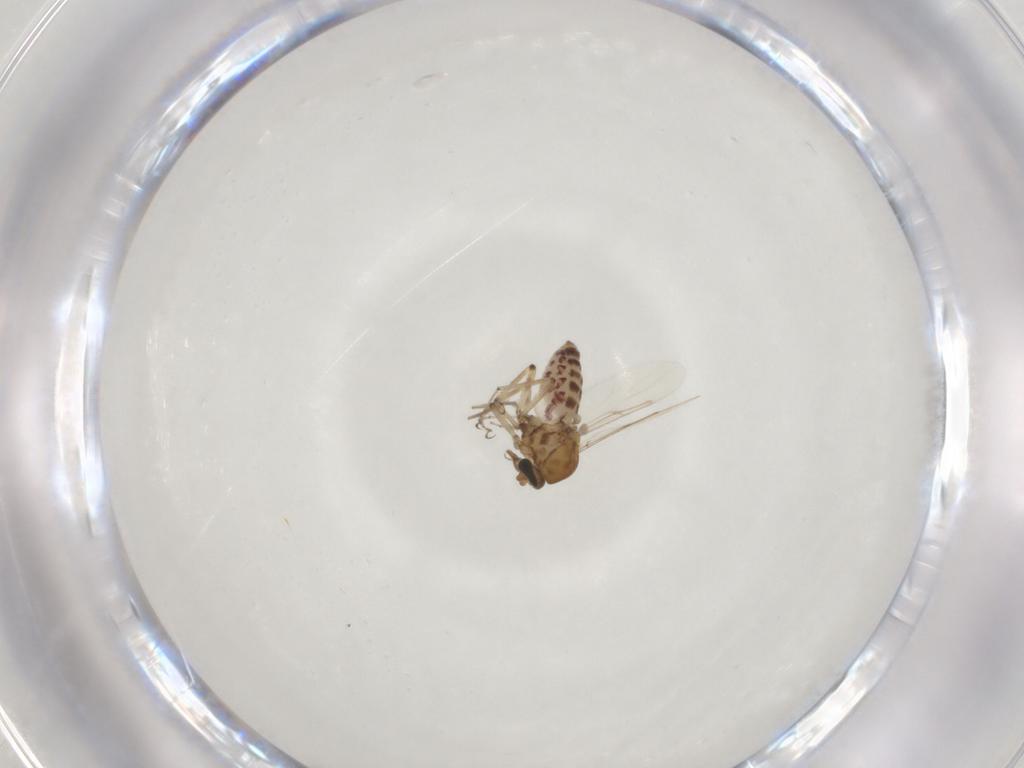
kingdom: Animalia
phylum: Arthropoda
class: Insecta
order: Diptera
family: Ceratopogonidae
